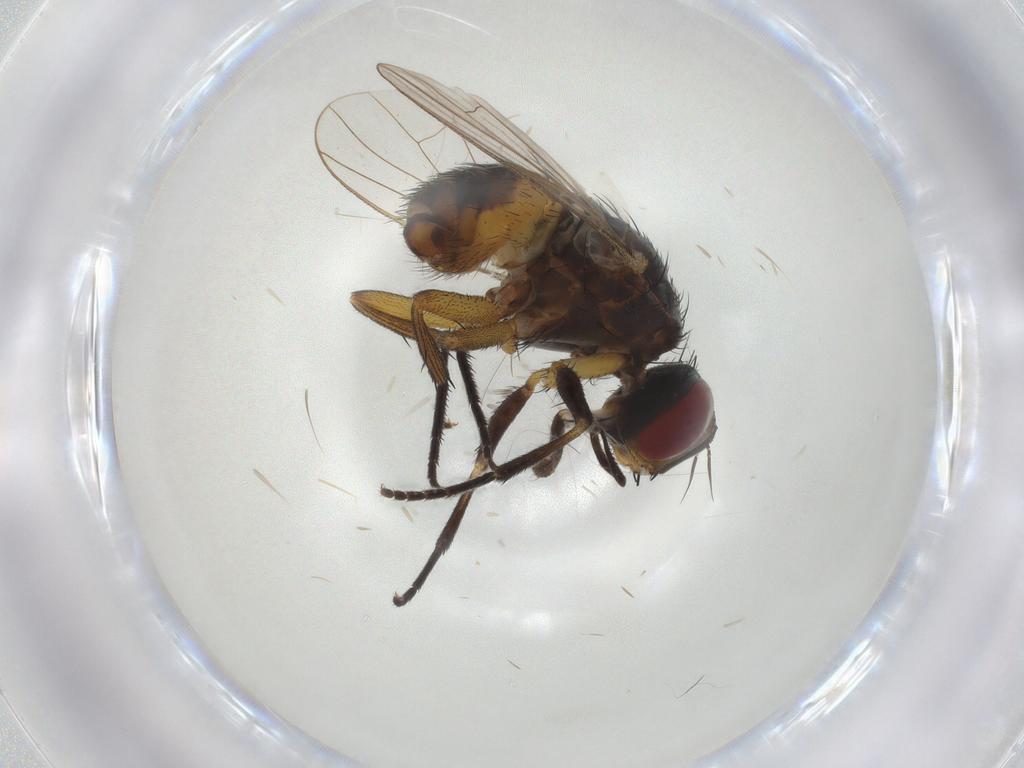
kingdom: Animalia
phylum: Arthropoda
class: Insecta
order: Diptera
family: Muscidae
